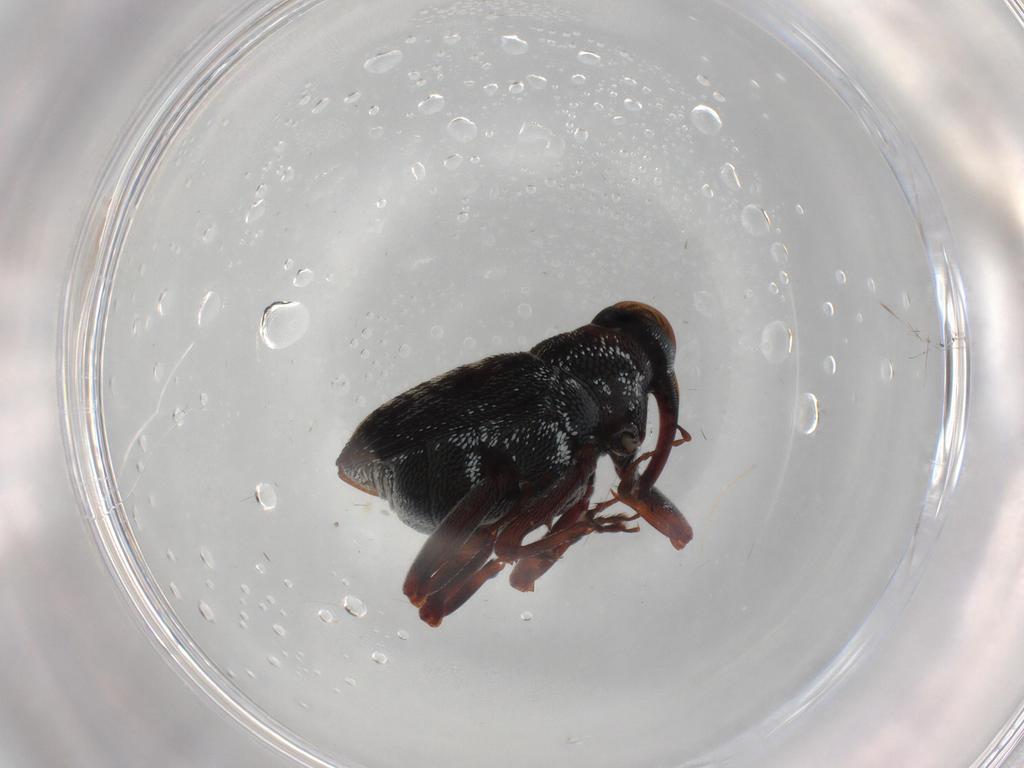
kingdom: Animalia
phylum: Arthropoda
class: Insecta
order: Coleoptera
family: Curculionidae
